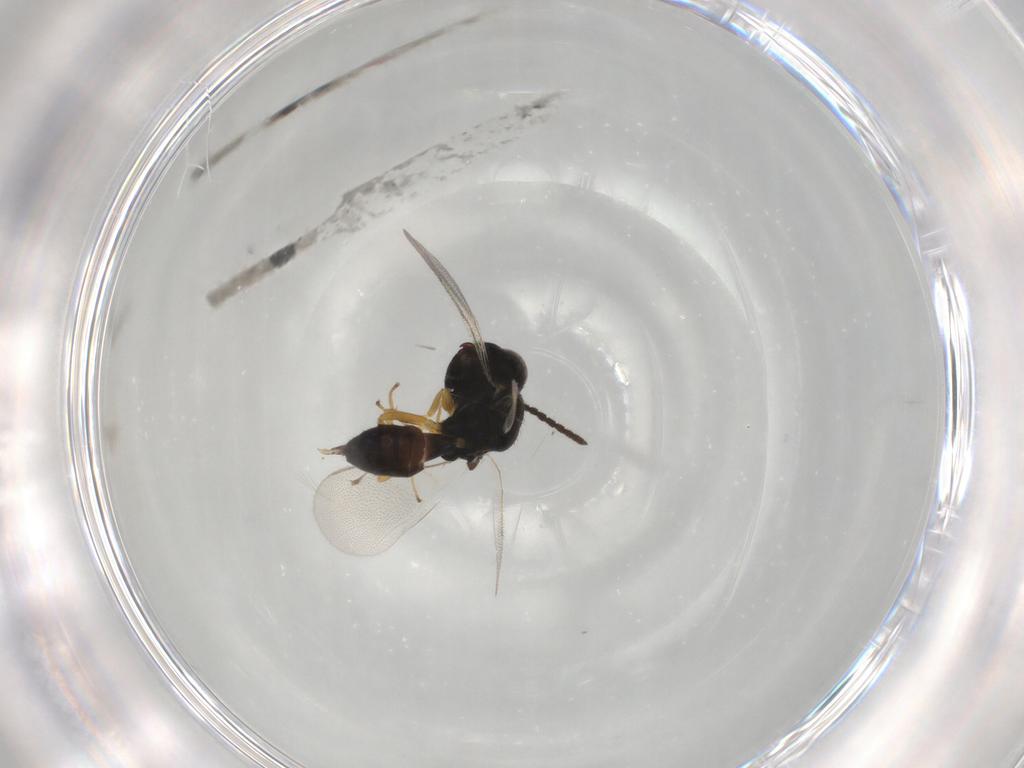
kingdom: Animalia
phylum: Arthropoda
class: Insecta
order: Hymenoptera
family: Pteromalidae
